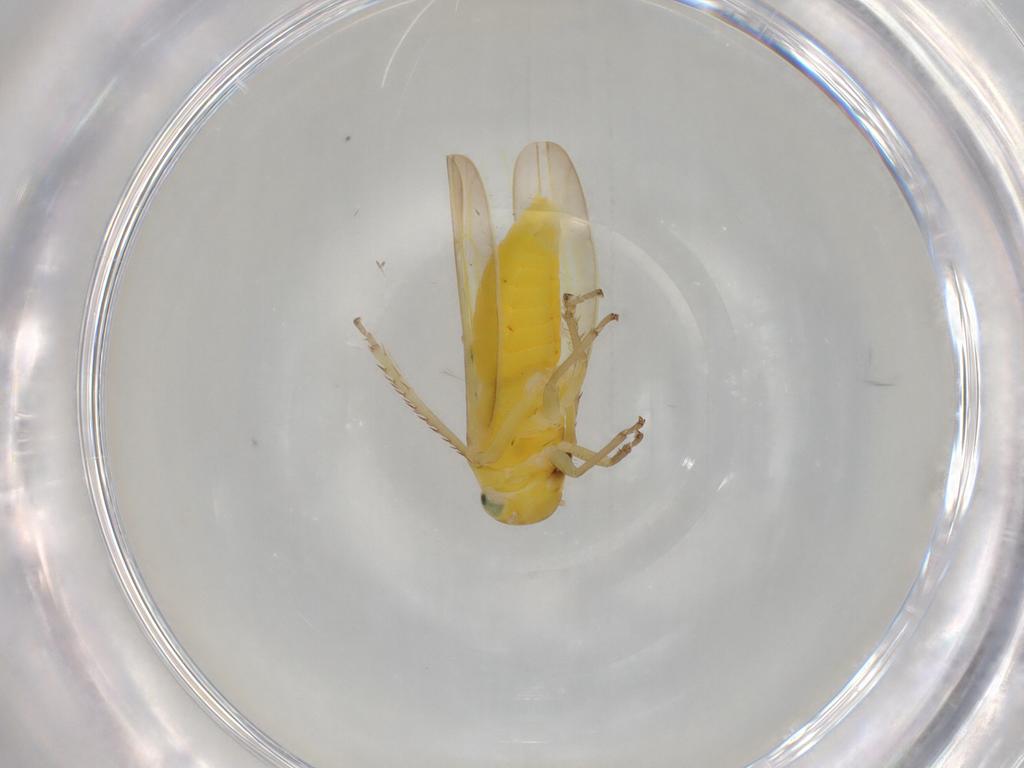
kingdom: Animalia
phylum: Arthropoda
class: Insecta
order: Hemiptera
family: Cicadellidae
